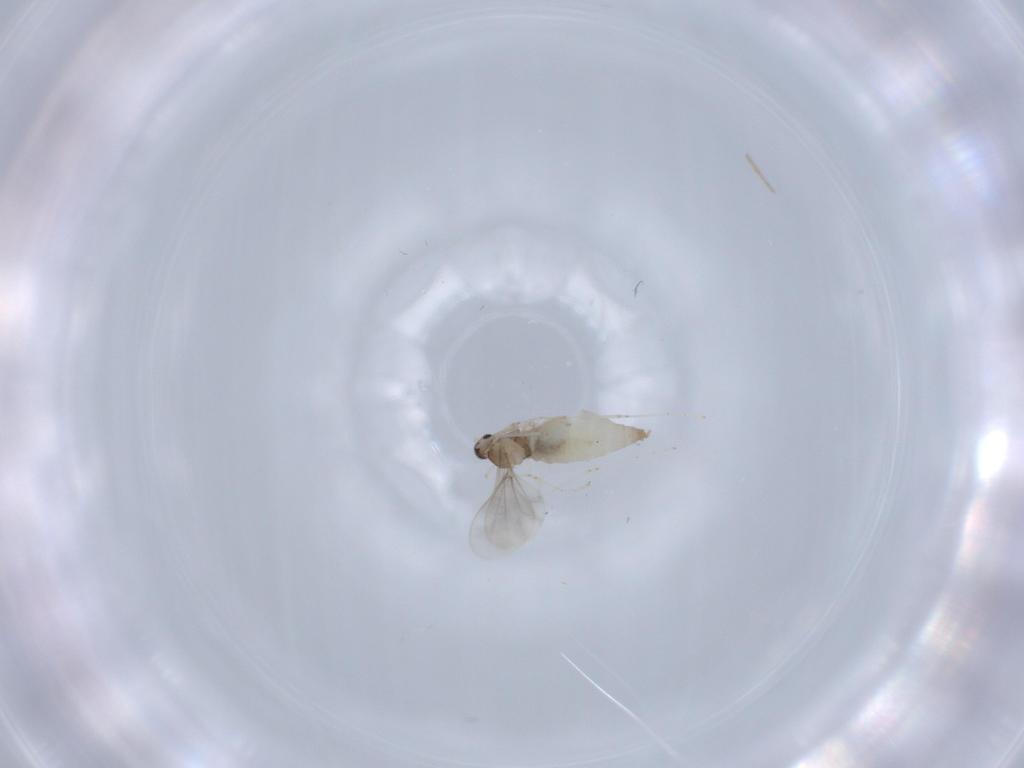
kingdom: Animalia
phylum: Arthropoda
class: Insecta
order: Diptera
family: Cecidomyiidae
